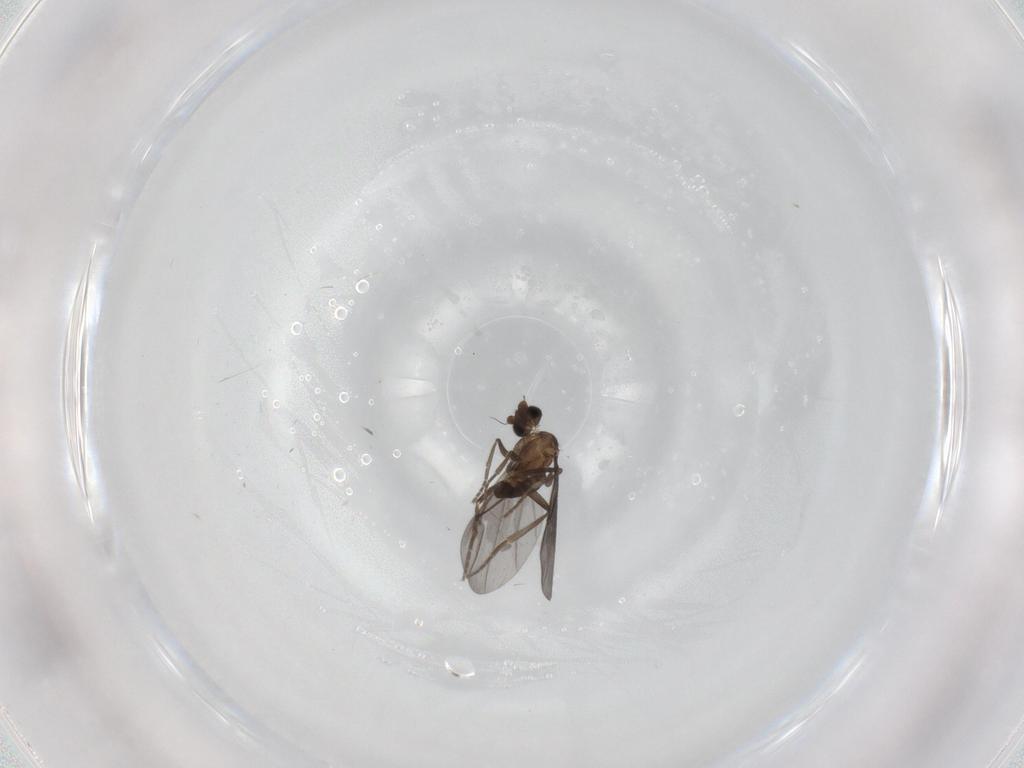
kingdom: Animalia
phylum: Arthropoda
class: Insecta
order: Diptera
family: Phoridae
